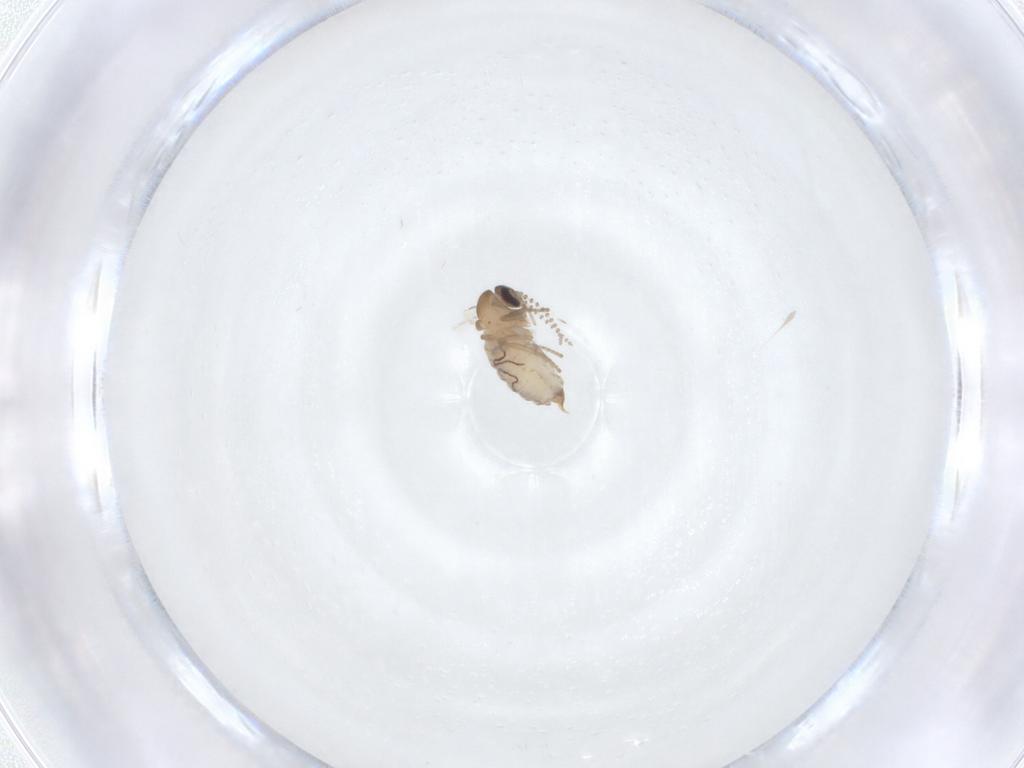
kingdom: Animalia
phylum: Arthropoda
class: Insecta
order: Diptera
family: Psychodidae
